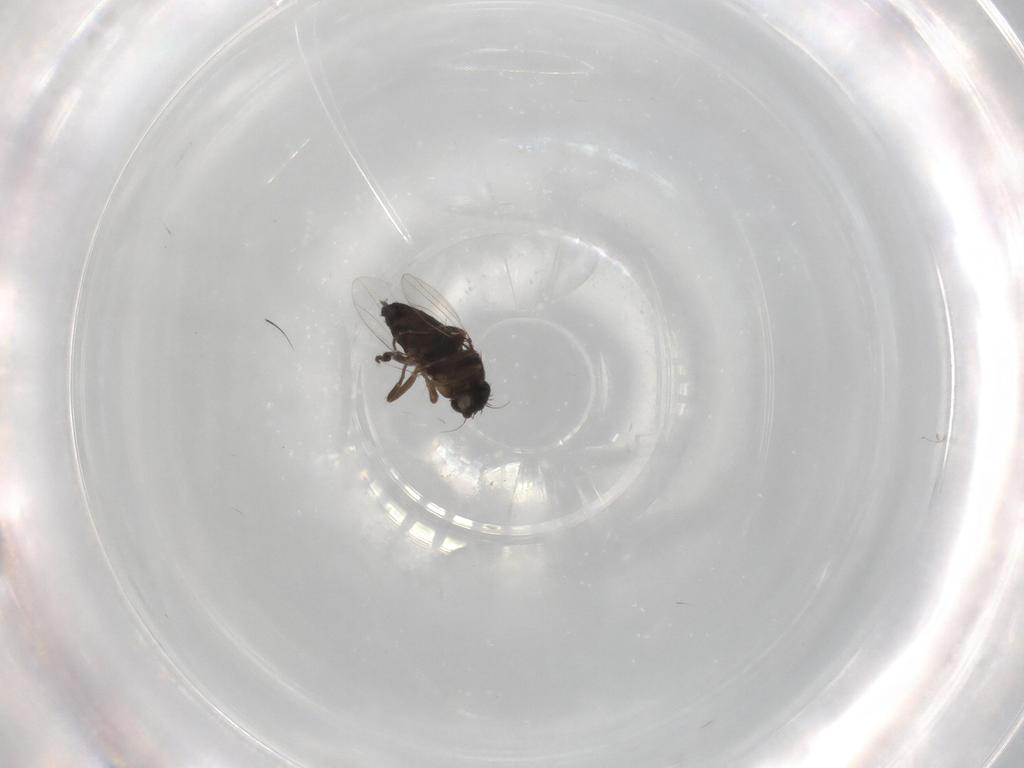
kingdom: Animalia
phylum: Arthropoda
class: Insecta
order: Diptera
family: Phoridae
